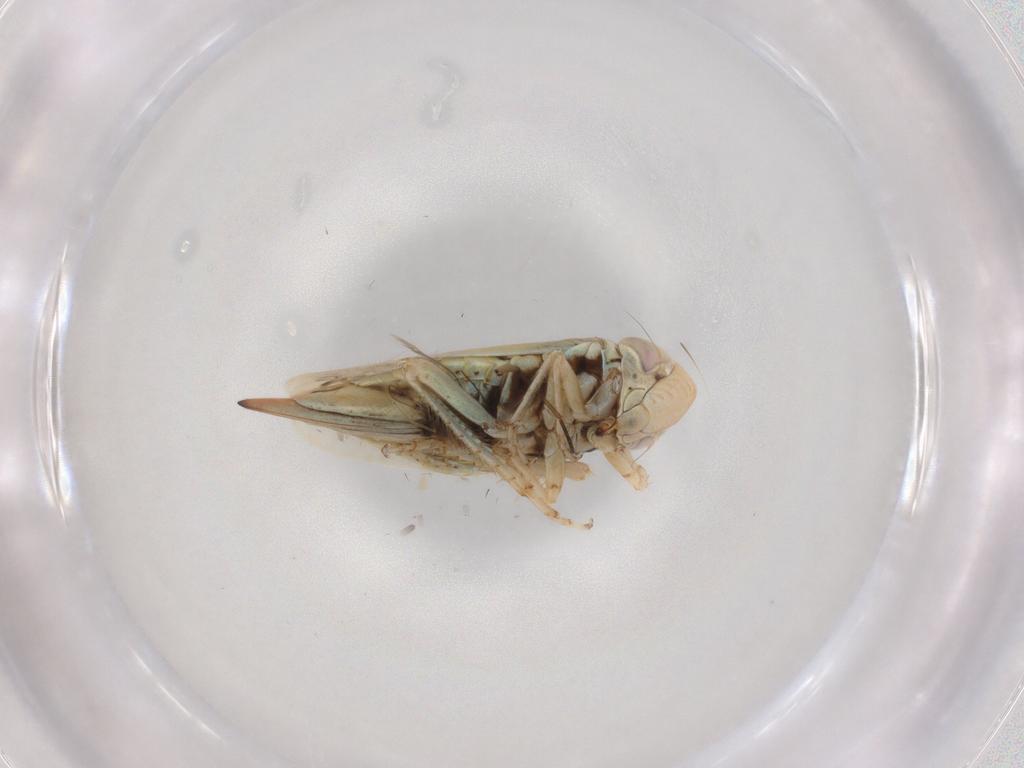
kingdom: Animalia
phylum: Arthropoda
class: Insecta
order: Hemiptera
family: Cicadellidae
